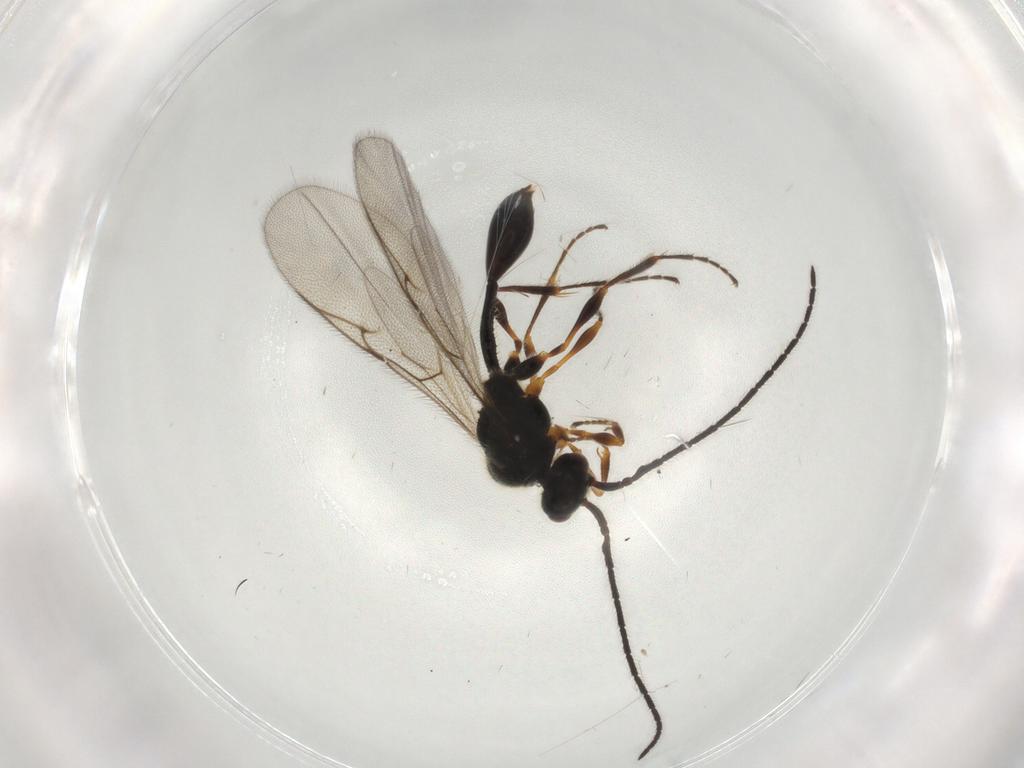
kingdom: Animalia
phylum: Arthropoda
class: Insecta
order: Hymenoptera
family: Diapriidae
